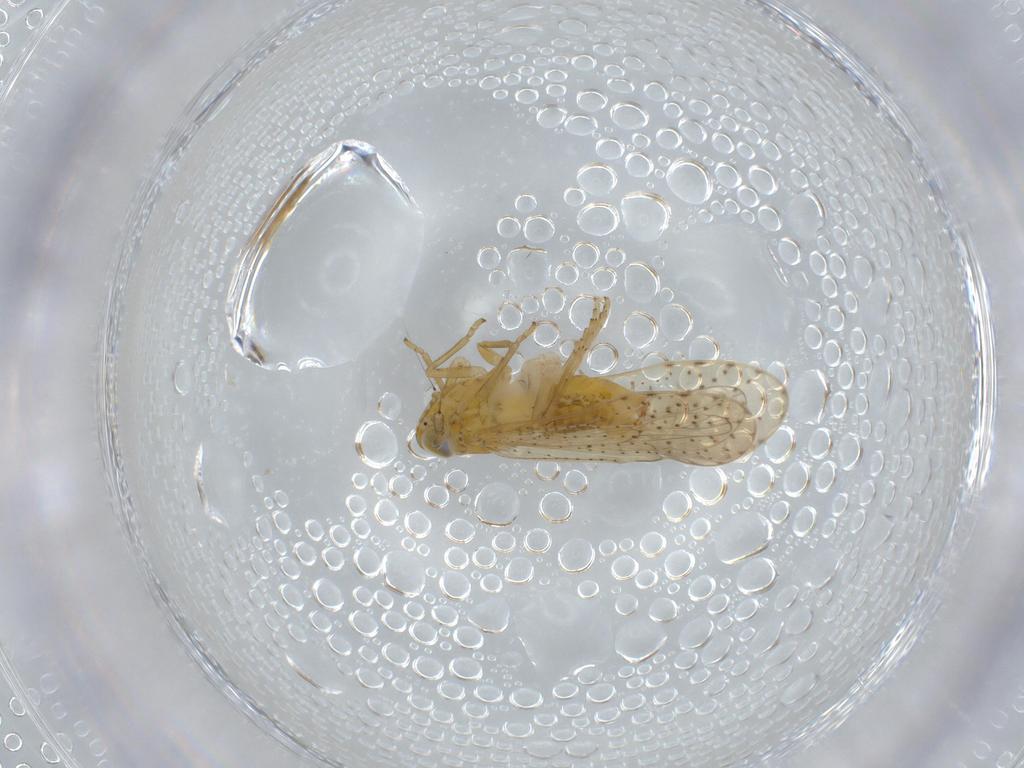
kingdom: Animalia
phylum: Arthropoda
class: Insecta
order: Hemiptera
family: Delphacidae
